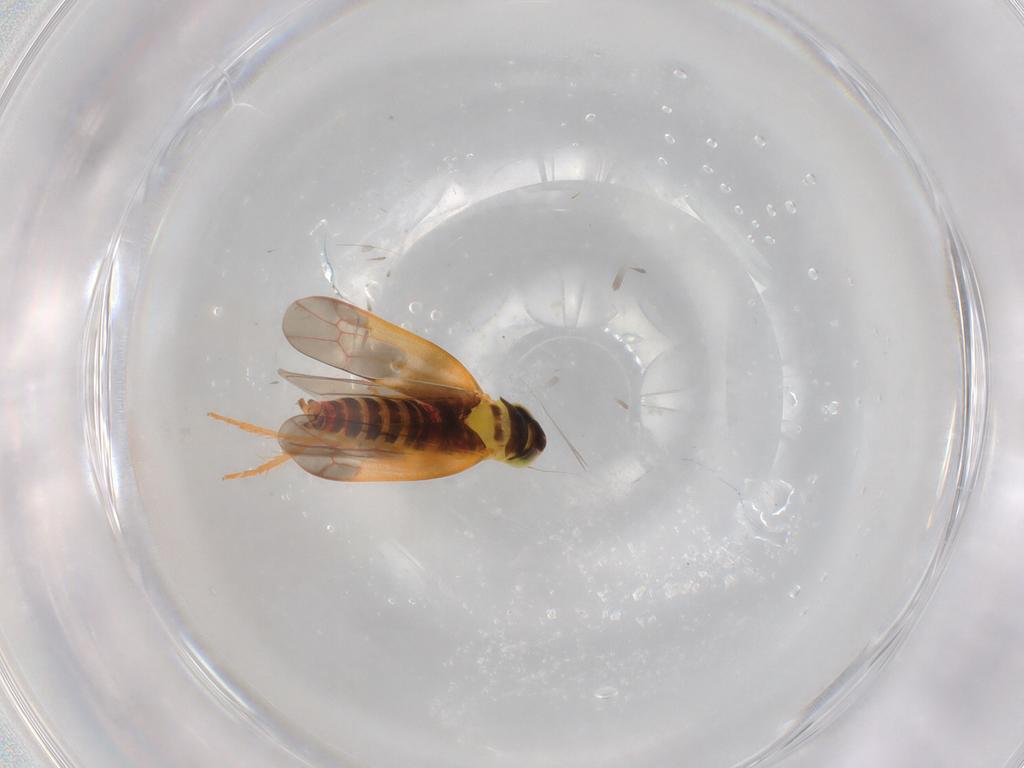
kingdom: Animalia
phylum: Arthropoda
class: Insecta
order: Hemiptera
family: Cicadellidae
